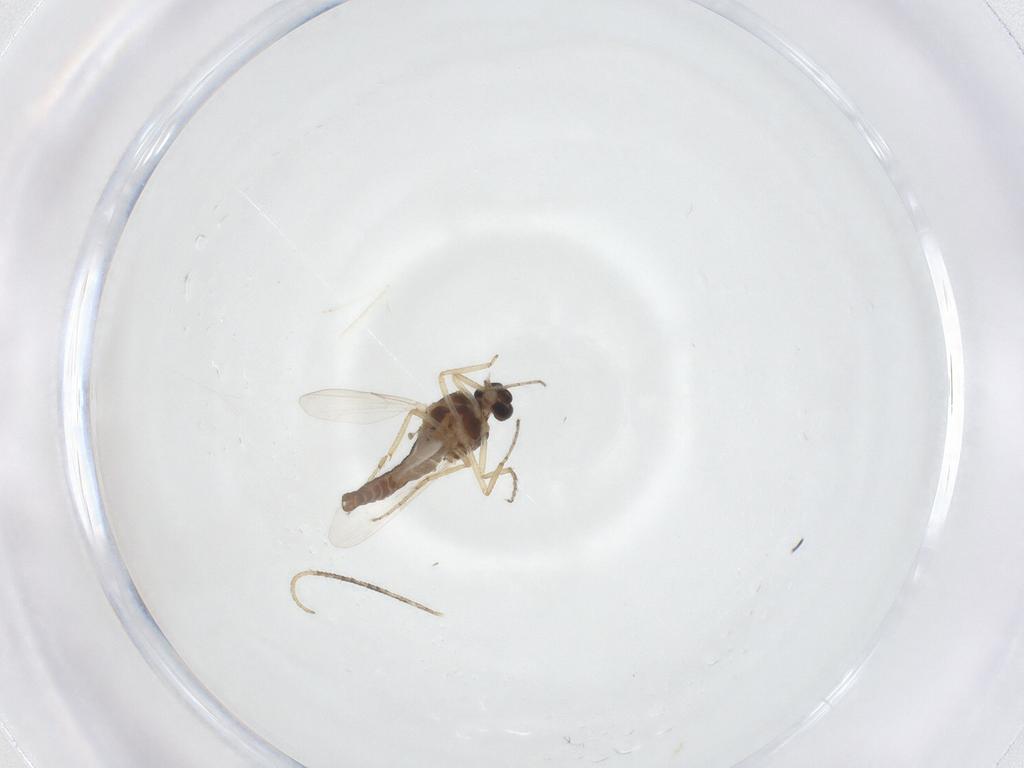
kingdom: Animalia
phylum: Arthropoda
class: Insecta
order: Diptera
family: Ceratopogonidae
